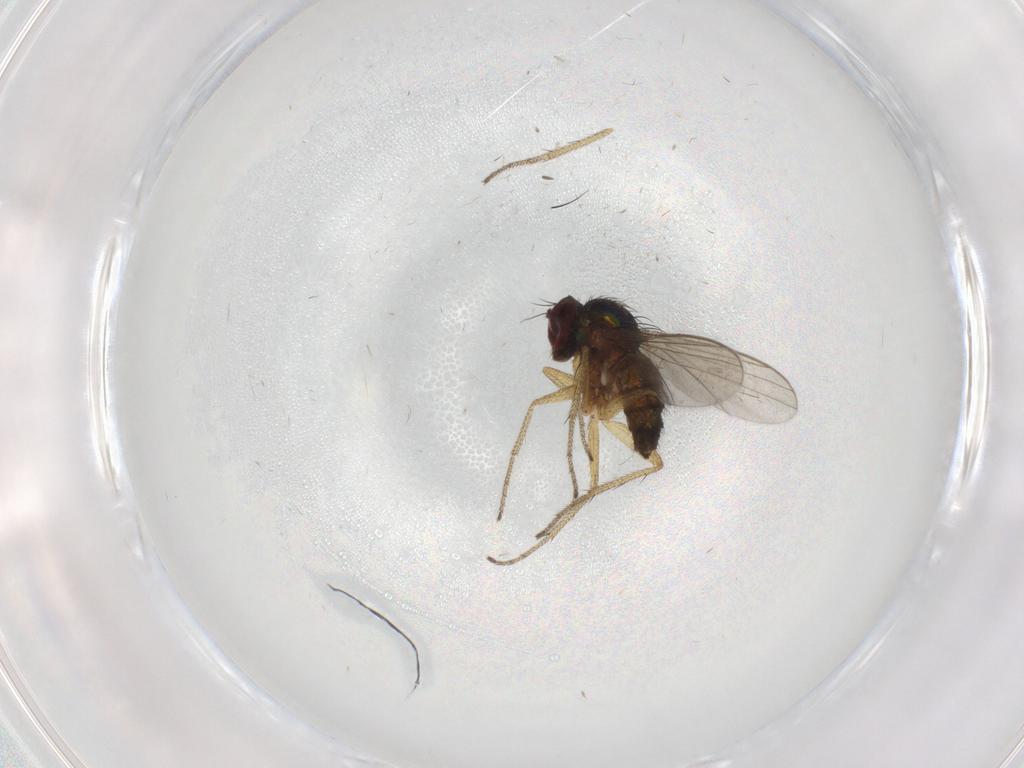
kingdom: Animalia
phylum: Arthropoda
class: Insecta
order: Diptera
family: Dolichopodidae
